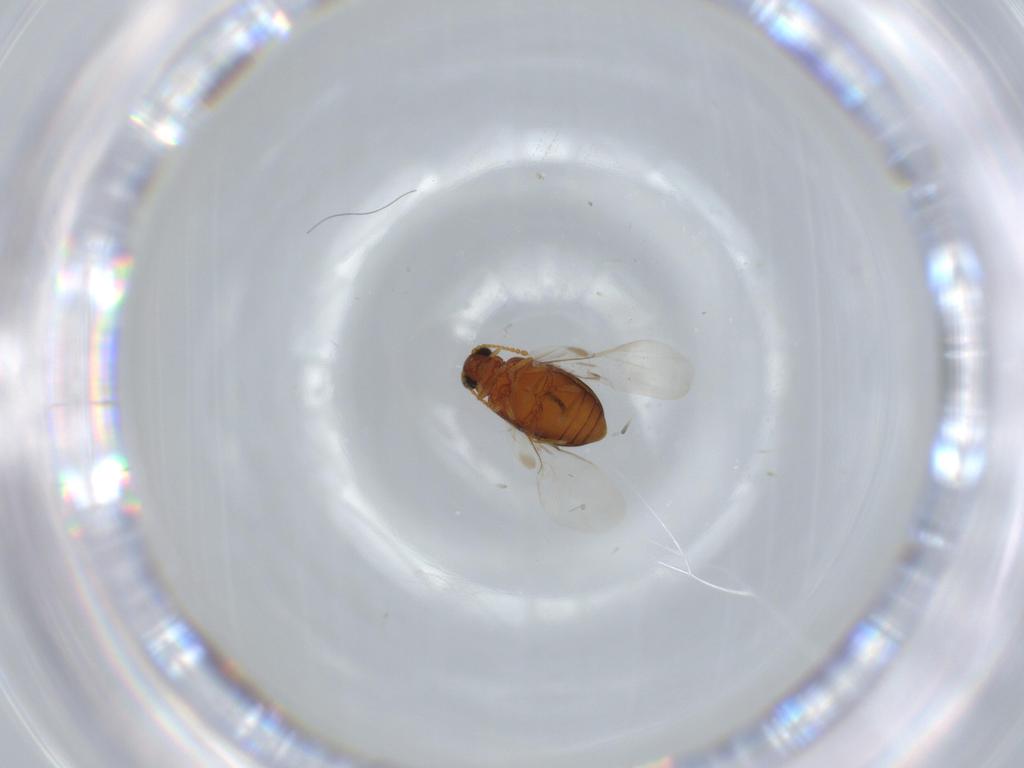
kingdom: Animalia
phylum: Arthropoda
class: Insecta
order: Coleoptera
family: Aderidae
